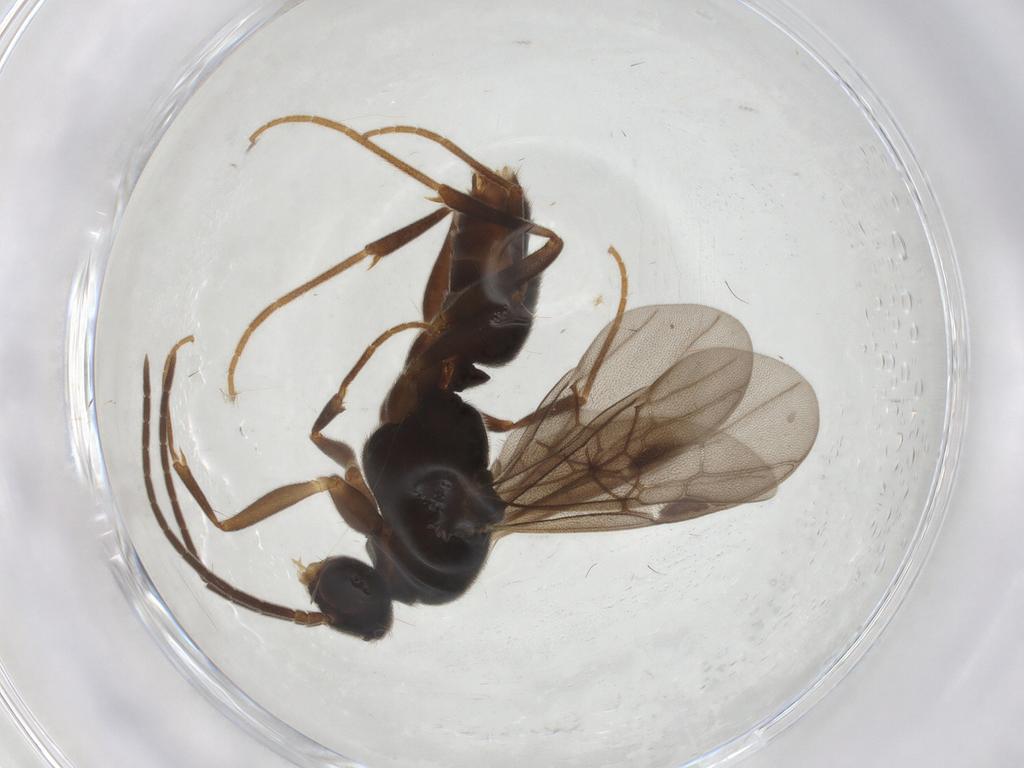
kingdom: Animalia
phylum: Arthropoda
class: Insecta
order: Hymenoptera
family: Formicidae
